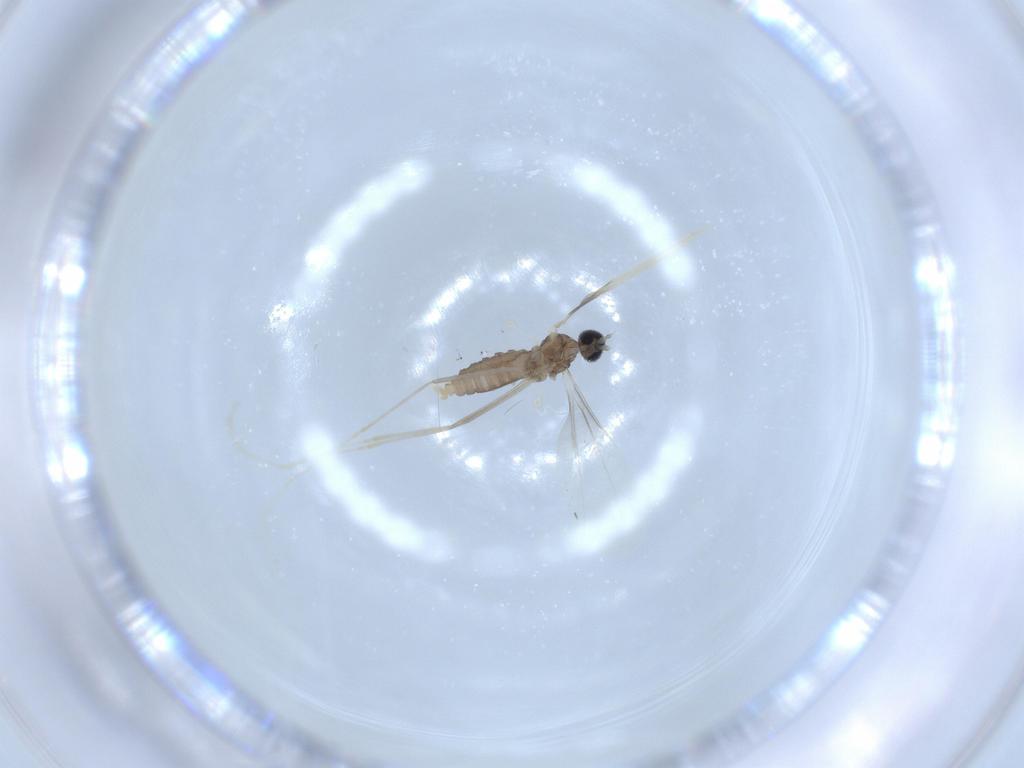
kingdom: Animalia
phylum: Arthropoda
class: Insecta
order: Diptera
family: Cecidomyiidae
